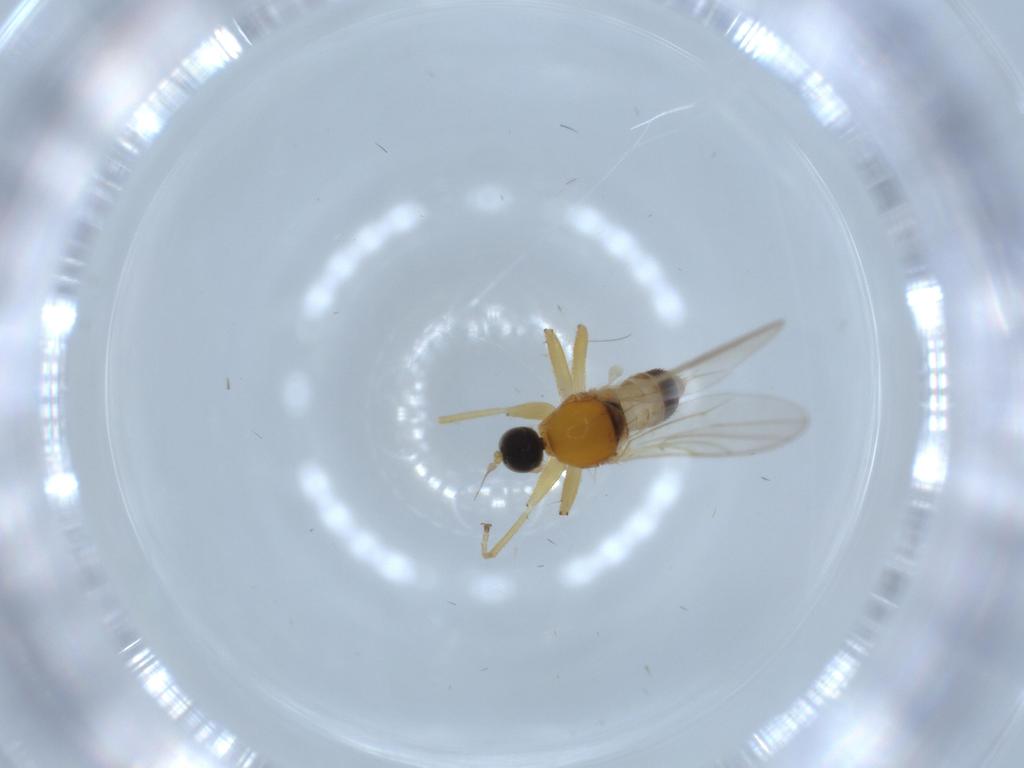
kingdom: Animalia
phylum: Arthropoda
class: Insecta
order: Diptera
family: Hybotidae
